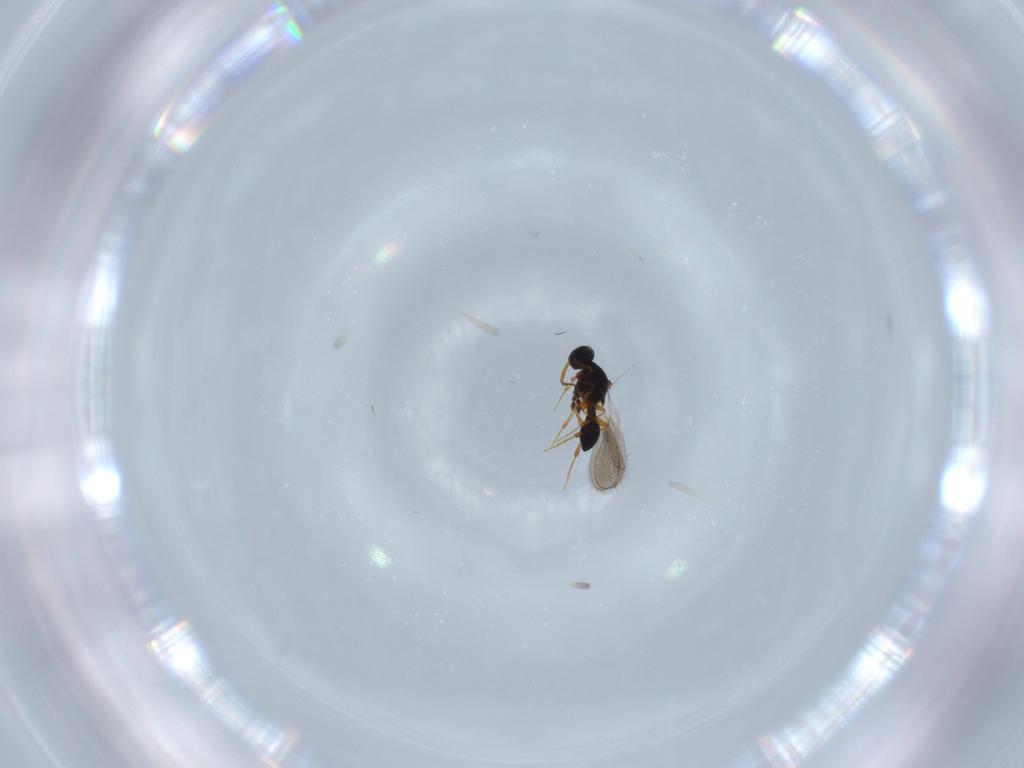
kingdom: Animalia
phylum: Arthropoda
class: Insecta
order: Hymenoptera
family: Platygastridae
